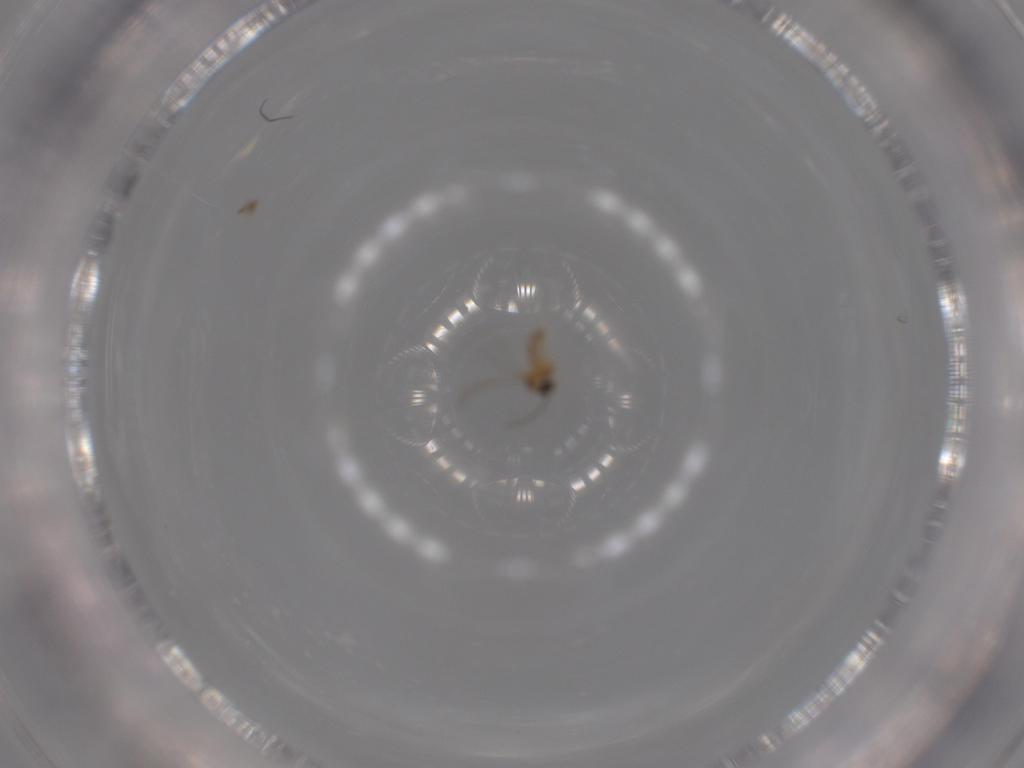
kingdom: Animalia
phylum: Arthropoda
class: Insecta
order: Diptera
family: Cecidomyiidae
